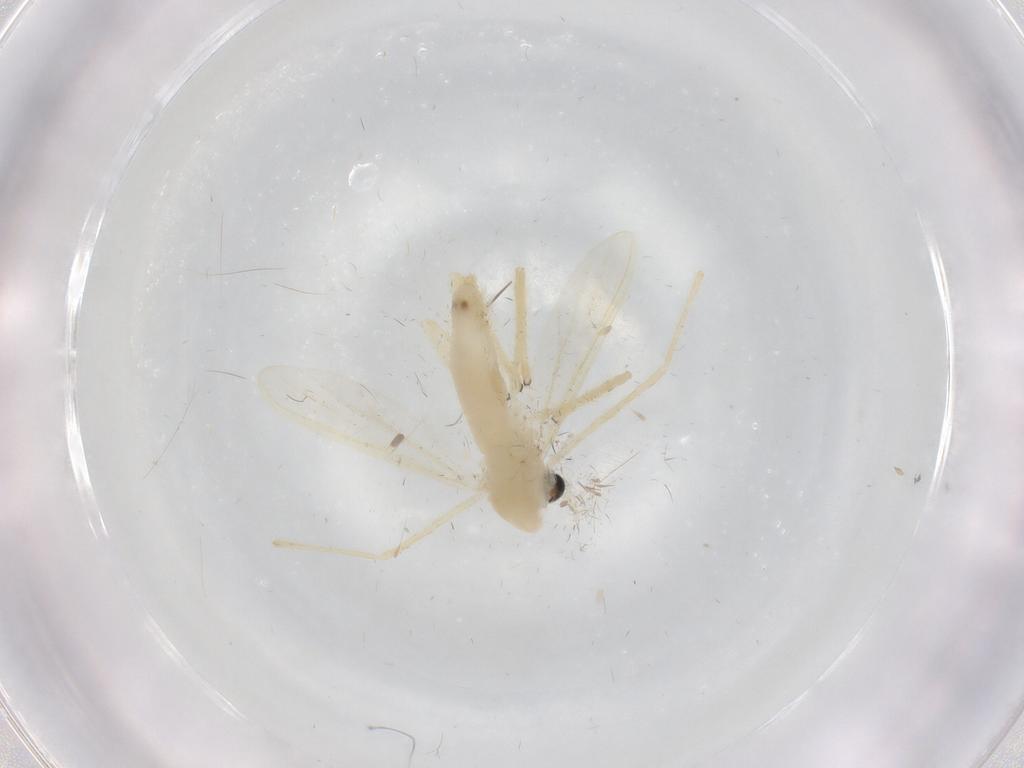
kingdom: Animalia
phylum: Arthropoda
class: Insecta
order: Diptera
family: Chironomidae
